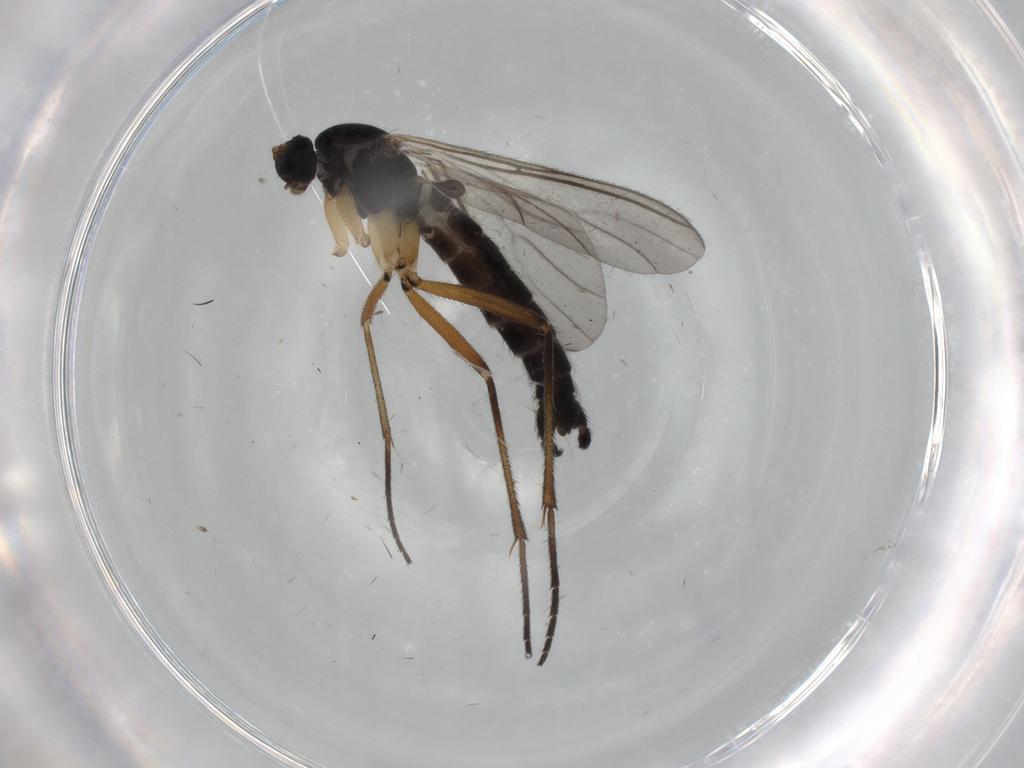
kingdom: Animalia
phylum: Arthropoda
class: Insecta
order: Diptera
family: Sciaridae
